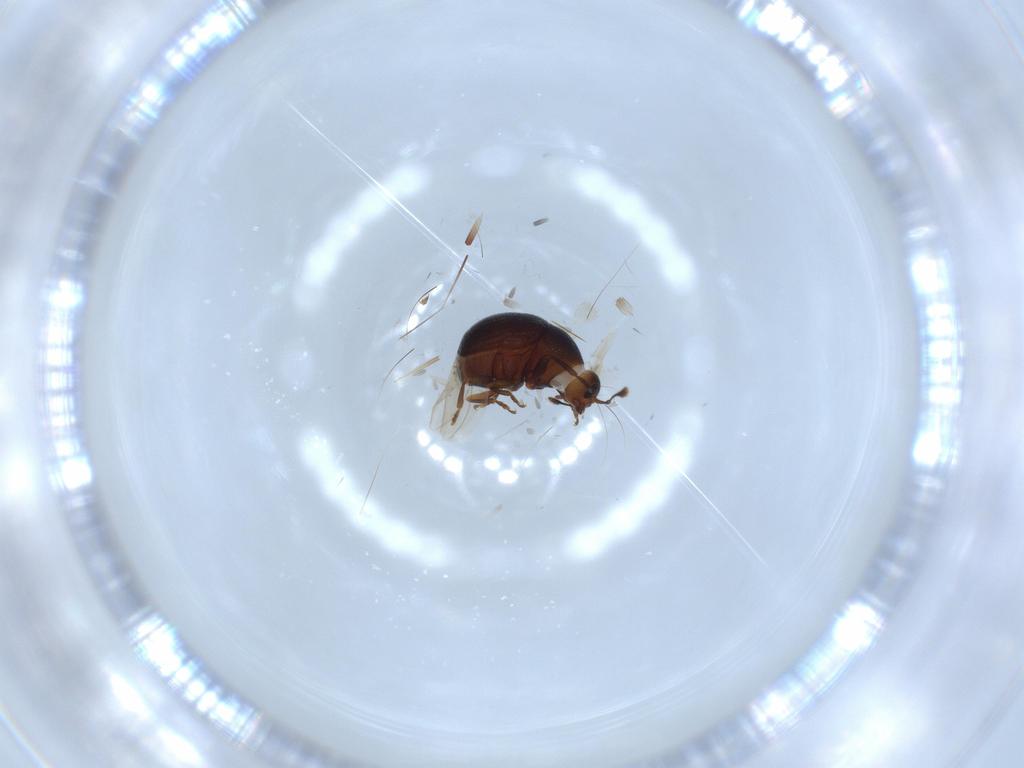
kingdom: Animalia
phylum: Arthropoda
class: Insecta
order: Coleoptera
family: Anthribidae
